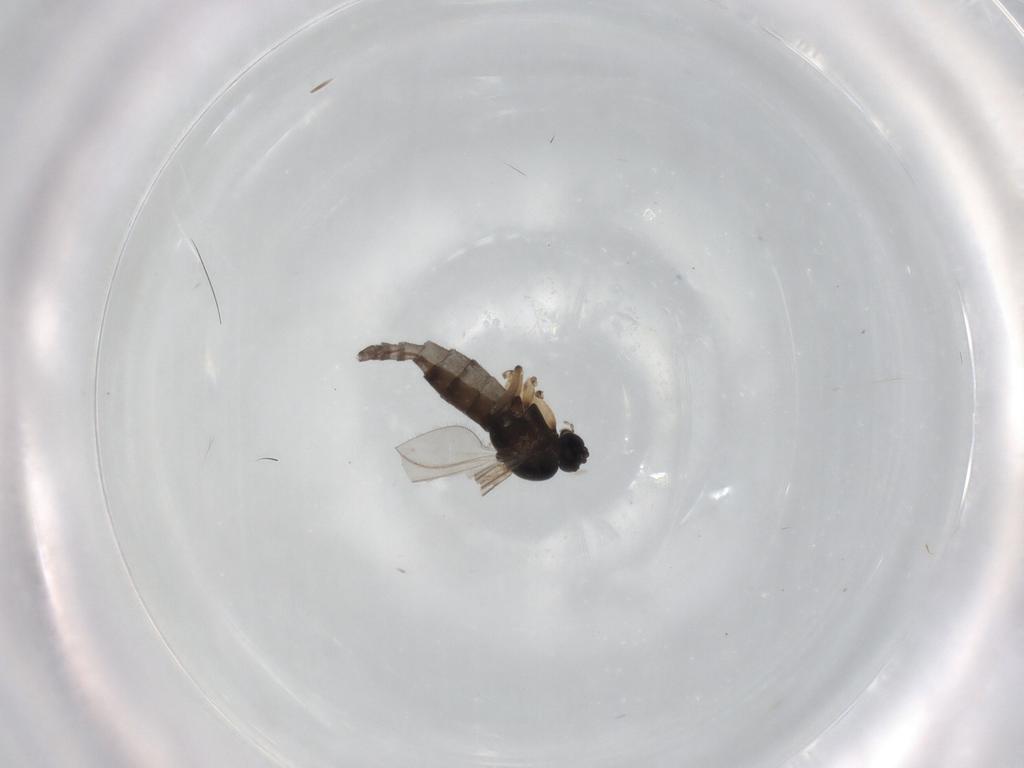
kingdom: Animalia
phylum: Arthropoda
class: Insecta
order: Diptera
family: Sciaridae
